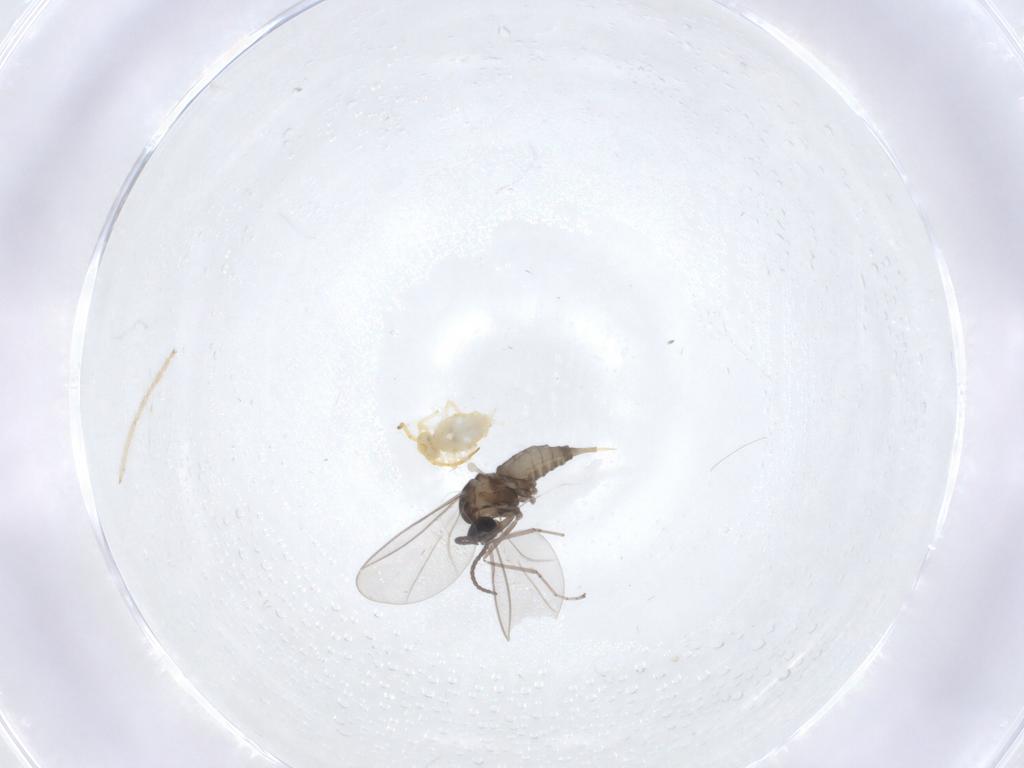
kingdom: Animalia
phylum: Arthropoda
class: Insecta
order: Diptera
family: Cecidomyiidae
